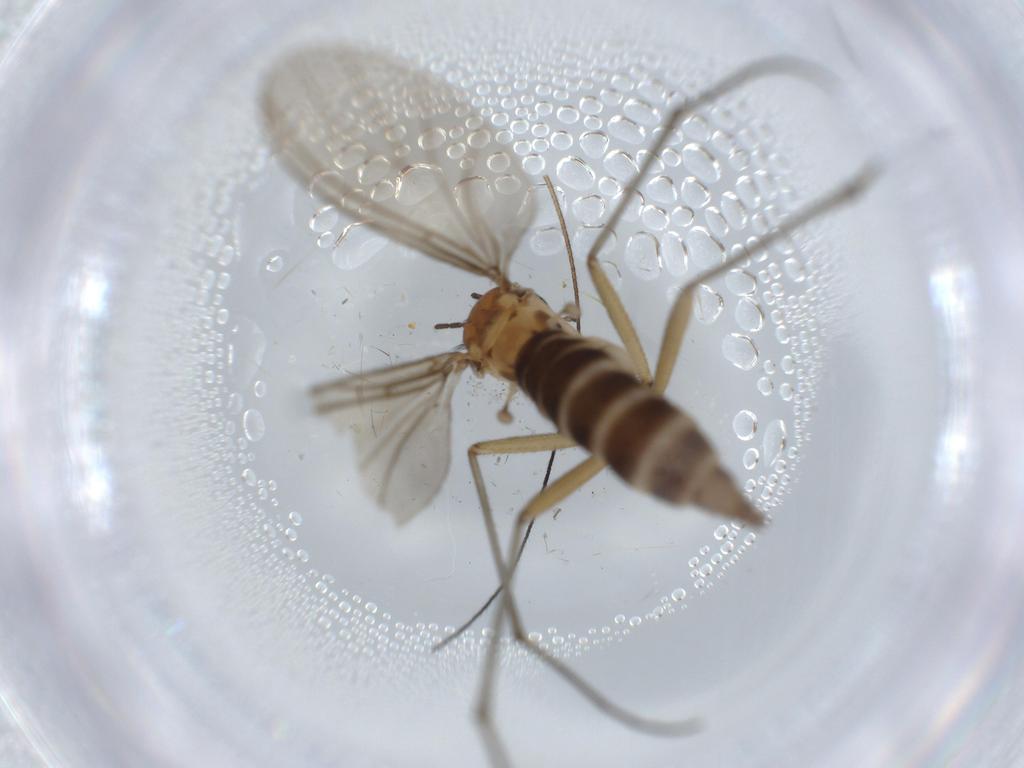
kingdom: Animalia
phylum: Arthropoda
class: Insecta
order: Diptera
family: Sciaridae
